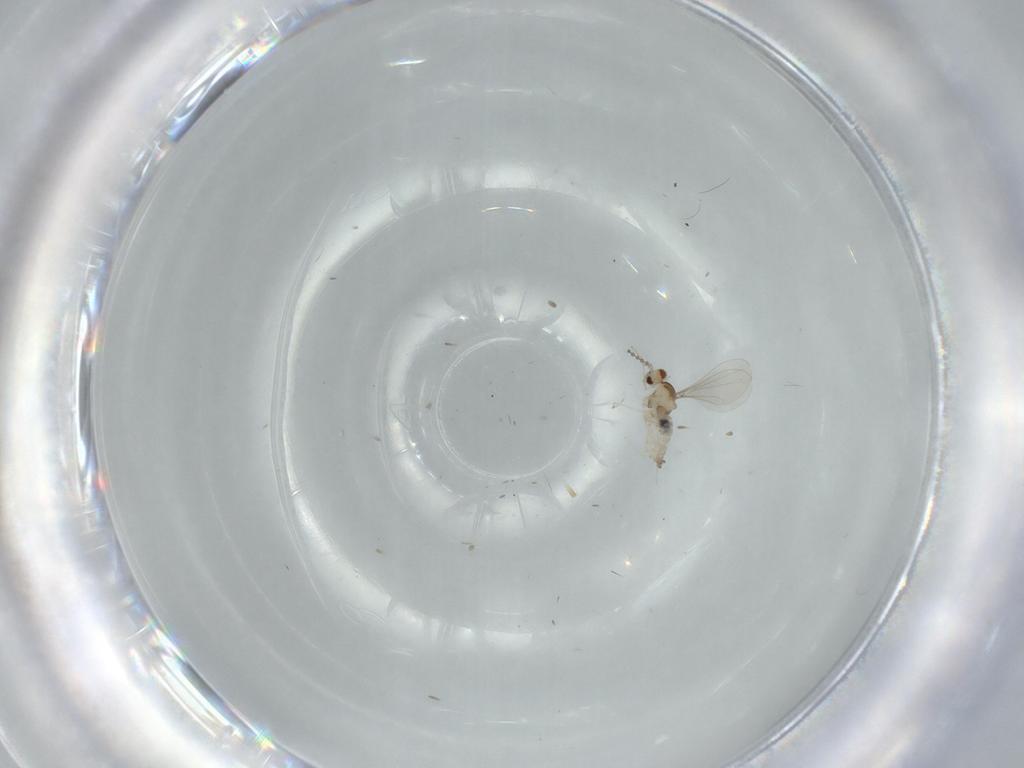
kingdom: Animalia
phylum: Arthropoda
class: Insecta
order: Diptera
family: Cecidomyiidae
